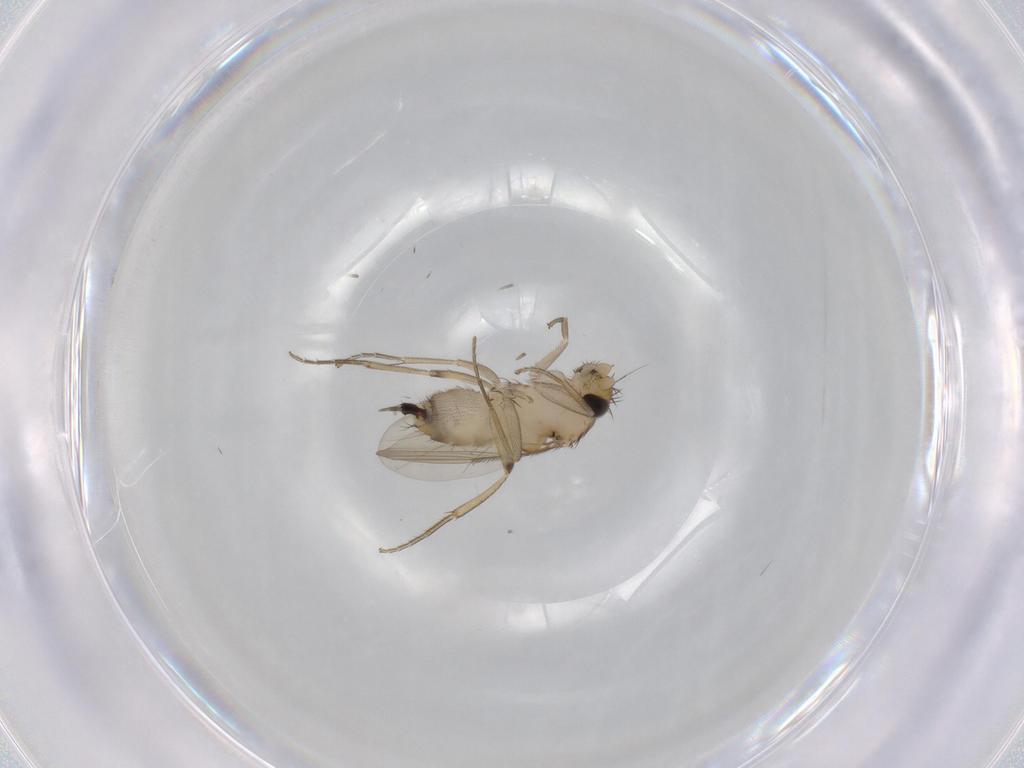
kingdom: Animalia
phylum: Arthropoda
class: Insecta
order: Diptera
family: Phoridae
